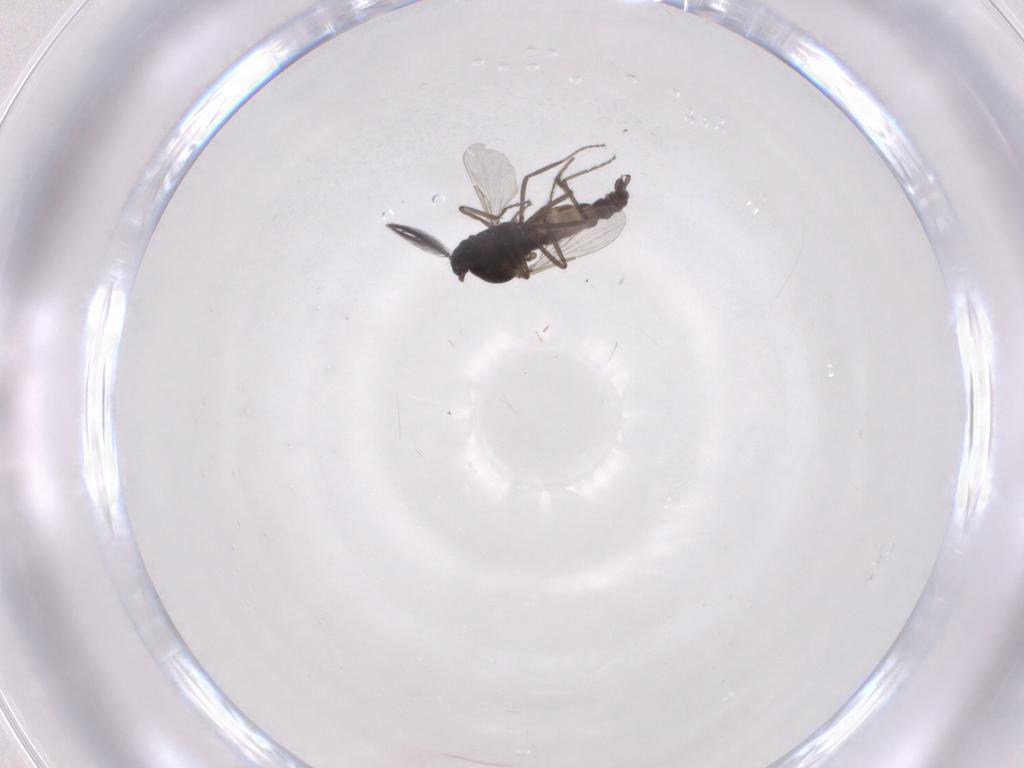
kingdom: Animalia
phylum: Arthropoda
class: Insecta
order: Diptera
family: Ceratopogonidae
